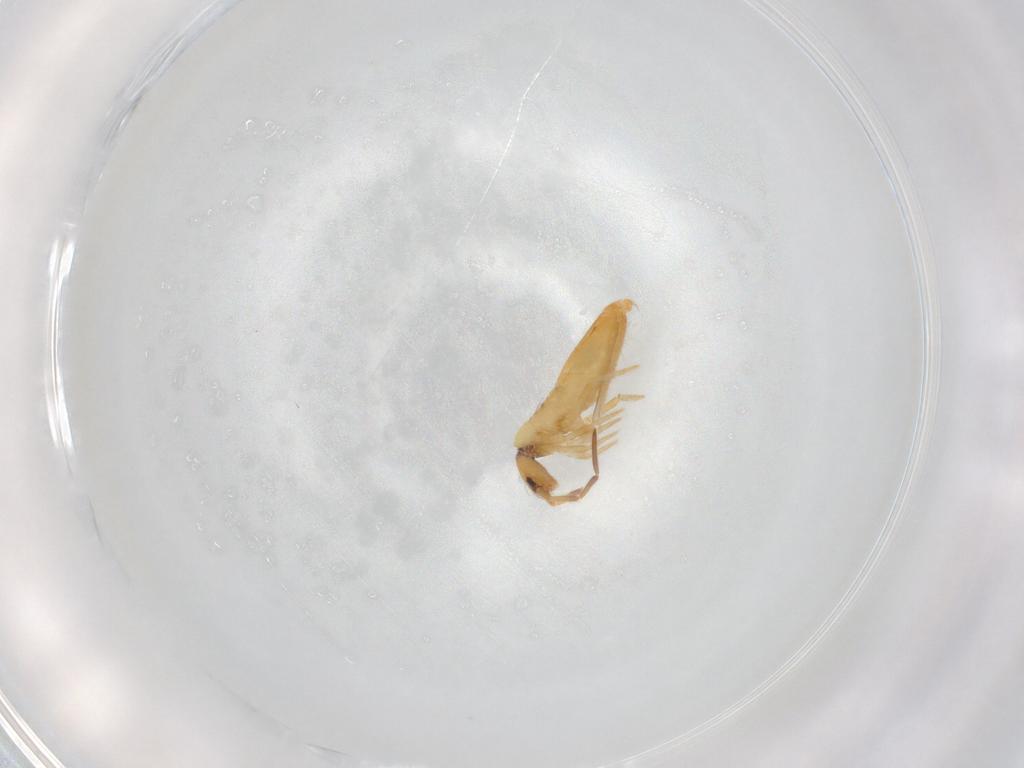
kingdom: Animalia
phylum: Arthropoda
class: Collembola
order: Entomobryomorpha
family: Entomobryidae
